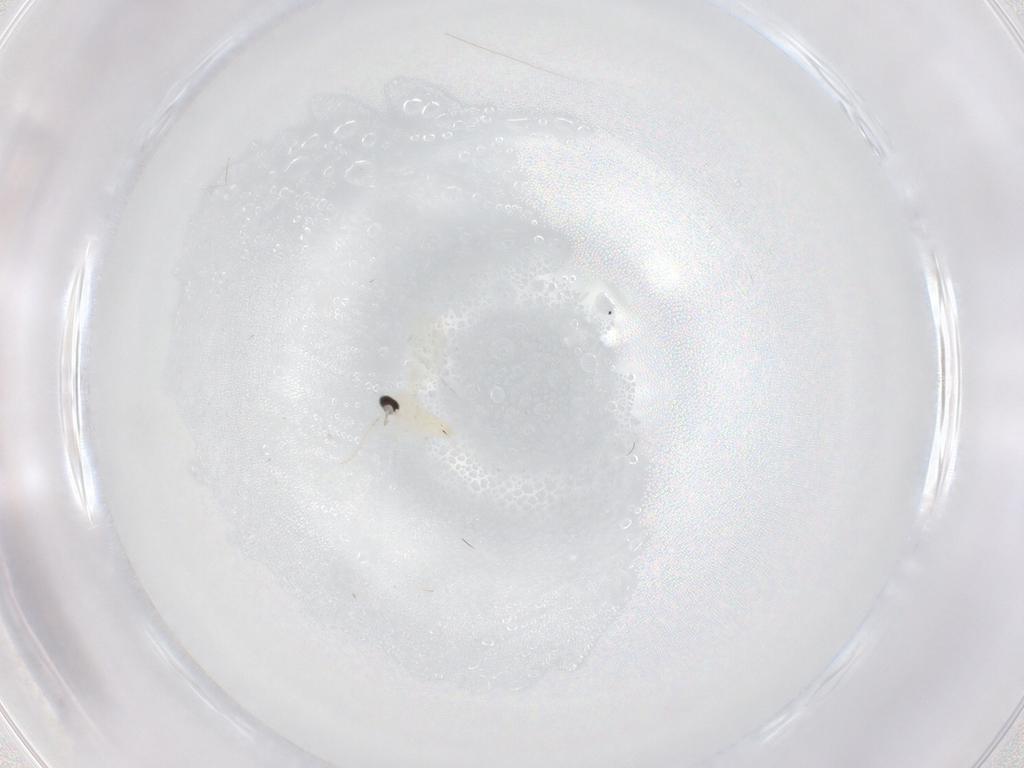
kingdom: Animalia
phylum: Arthropoda
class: Insecta
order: Diptera
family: Cecidomyiidae
